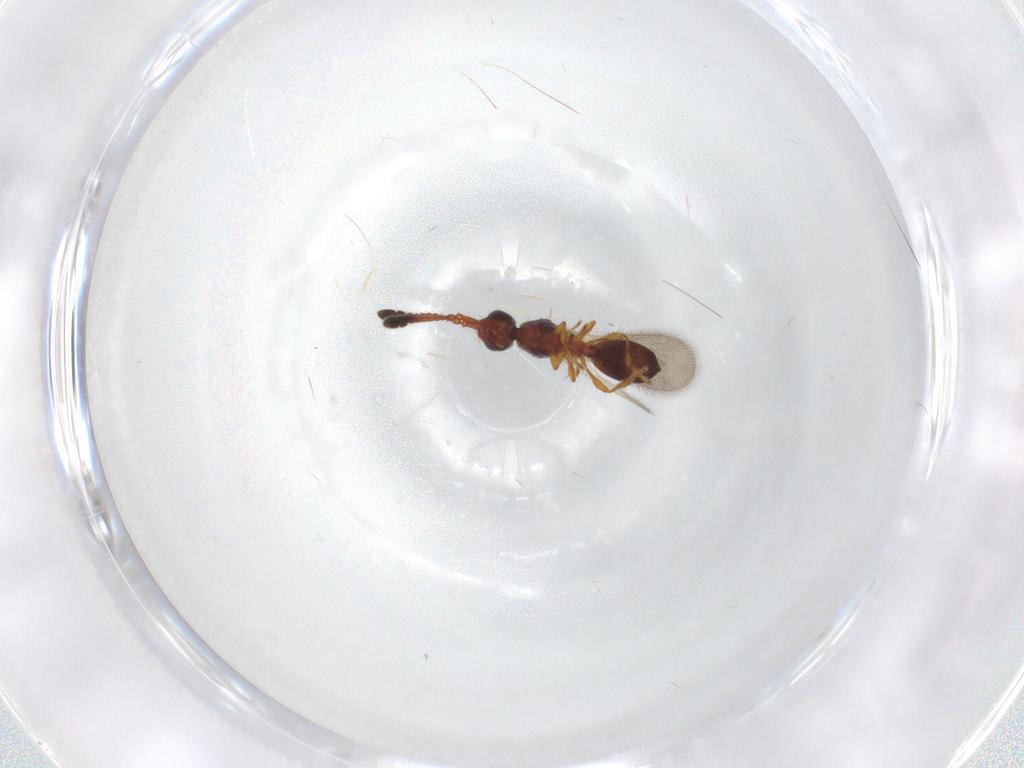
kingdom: Animalia
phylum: Arthropoda
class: Insecta
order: Hymenoptera
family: Diapriidae
